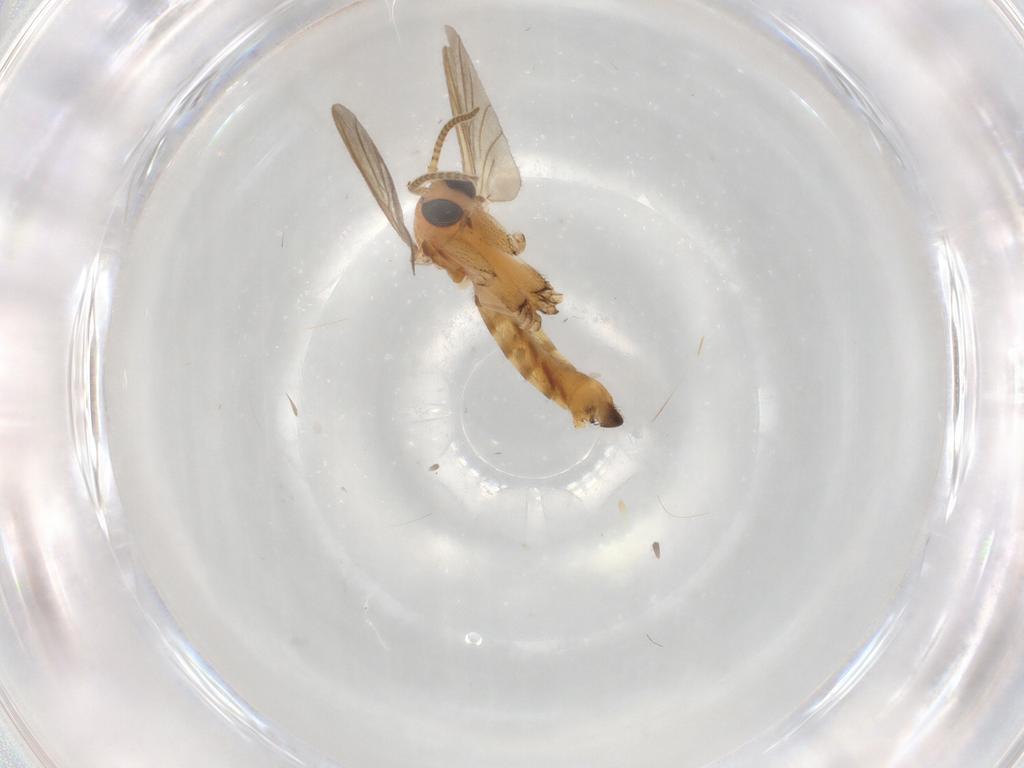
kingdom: Animalia
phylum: Arthropoda
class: Insecta
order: Diptera
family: Mycetophilidae
